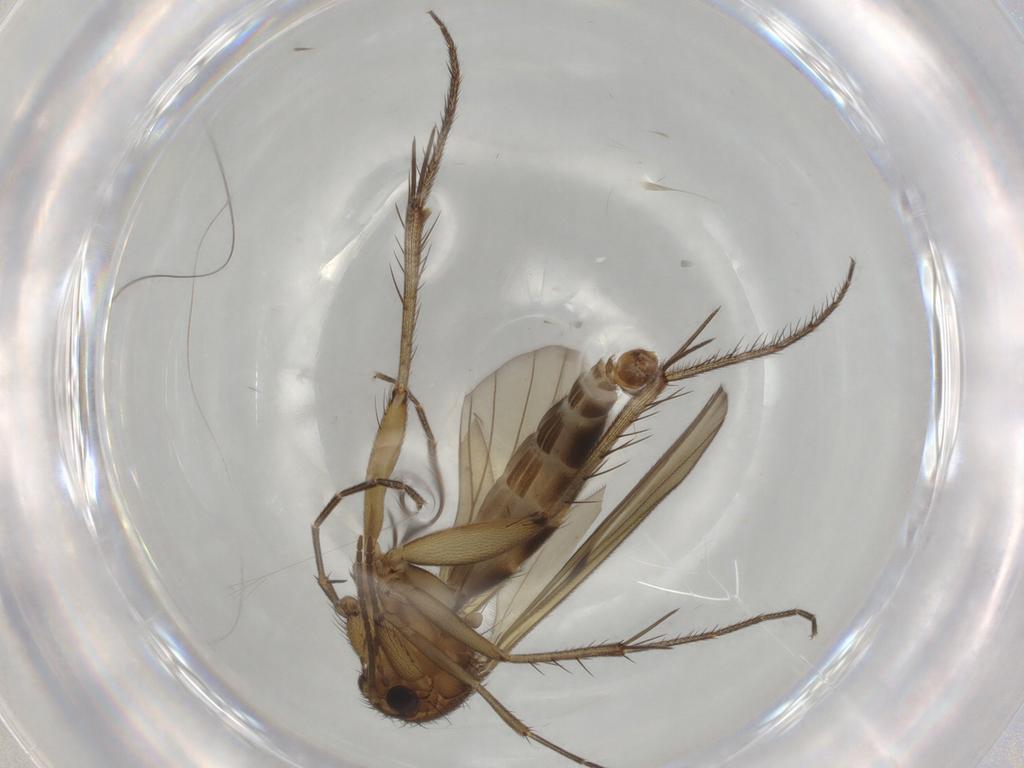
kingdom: Animalia
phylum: Arthropoda
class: Insecta
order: Diptera
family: Mycetophilidae
